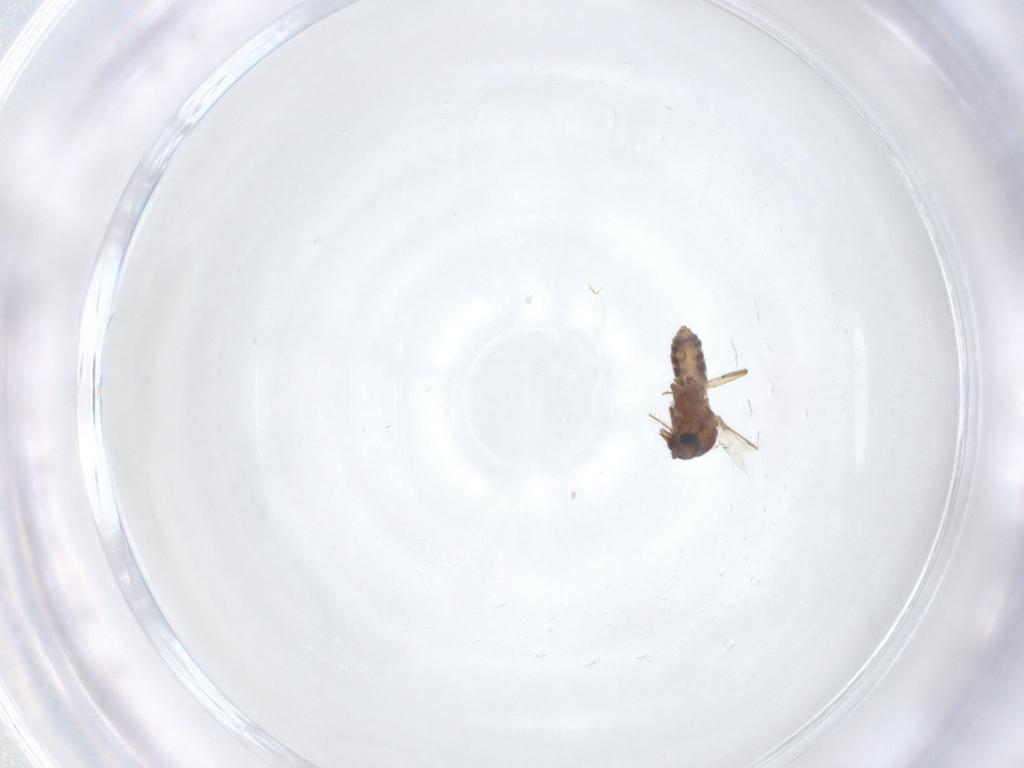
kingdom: Animalia
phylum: Arthropoda
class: Insecta
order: Diptera
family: Ceratopogonidae
